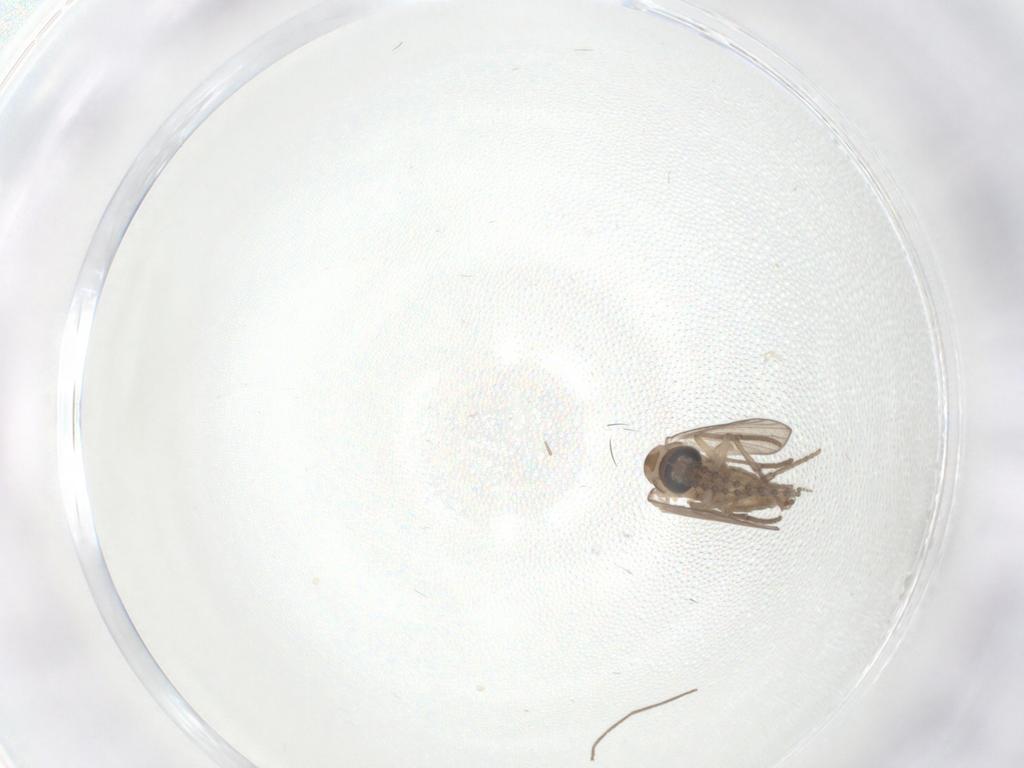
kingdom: Animalia
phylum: Arthropoda
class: Insecta
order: Diptera
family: Psychodidae
